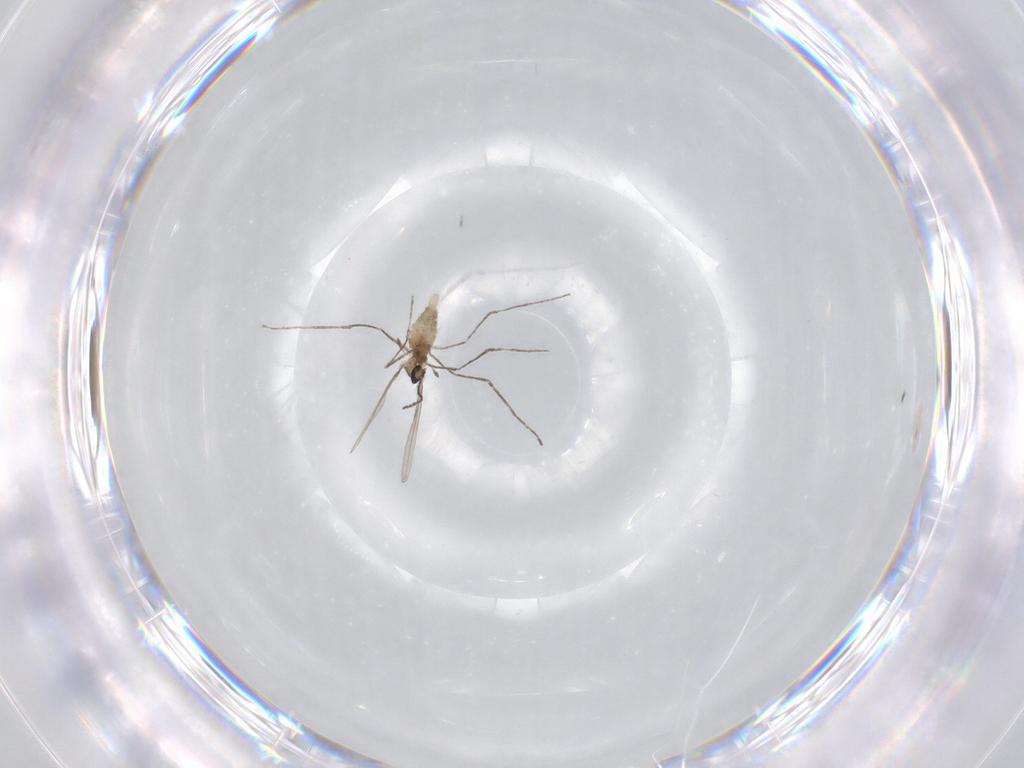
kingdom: Animalia
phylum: Arthropoda
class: Insecta
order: Diptera
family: Cecidomyiidae
